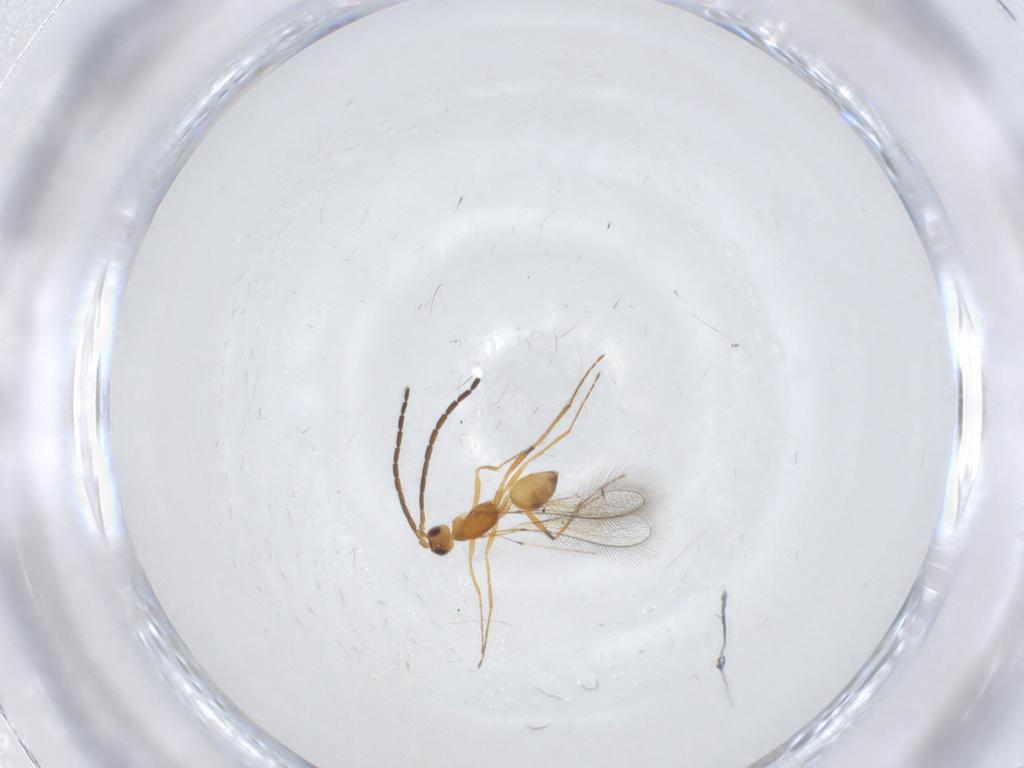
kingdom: Animalia
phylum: Arthropoda
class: Insecta
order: Hymenoptera
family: Mymaridae
